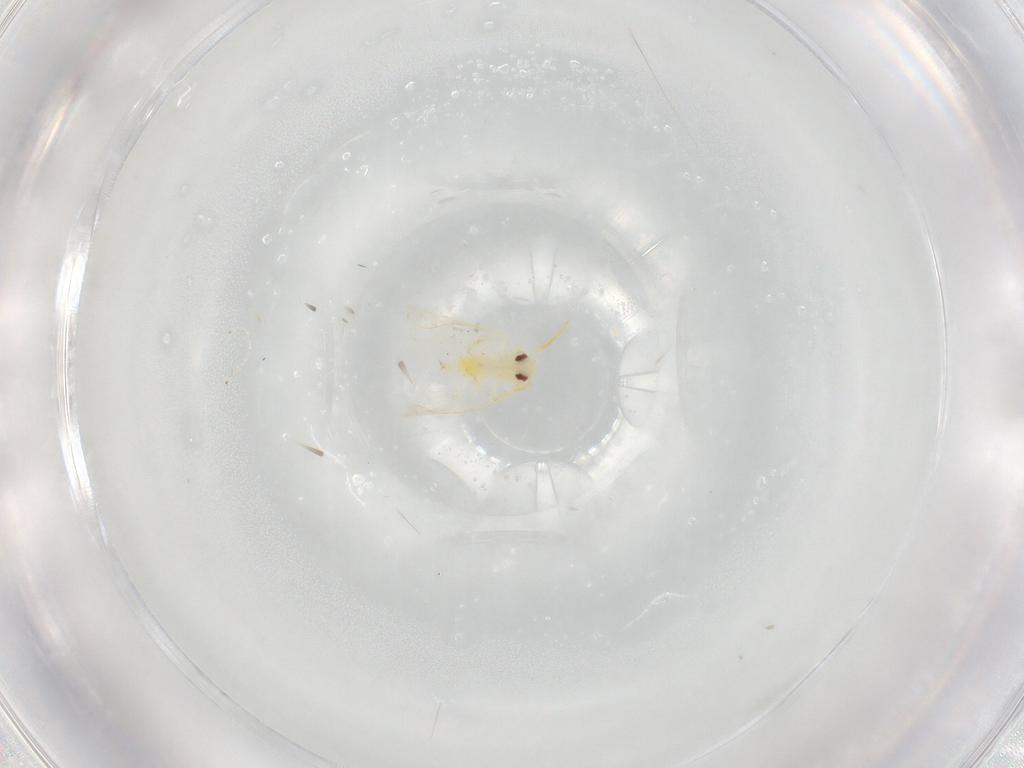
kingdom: Animalia
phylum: Arthropoda
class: Insecta
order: Hemiptera
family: Aleyrodidae
